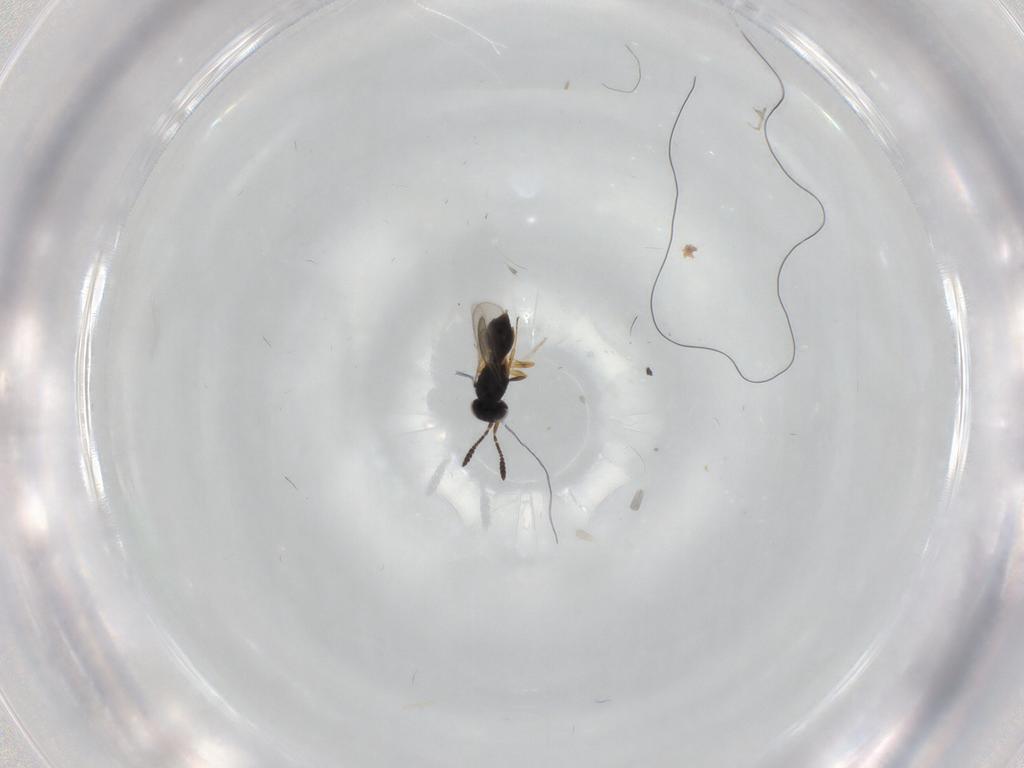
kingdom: Animalia
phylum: Arthropoda
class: Insecta
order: Hymenoptera
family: Scelionidae
